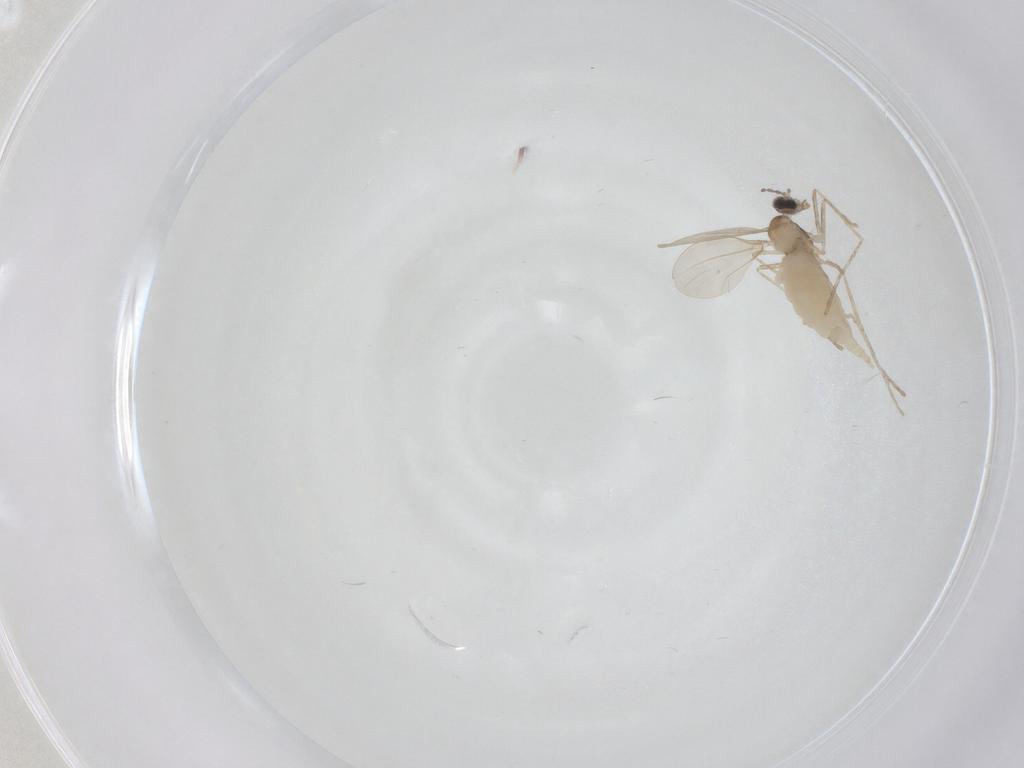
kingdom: Animalia
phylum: Arthropoda
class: Insecta
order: Diptera
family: Cecidomyiidae
